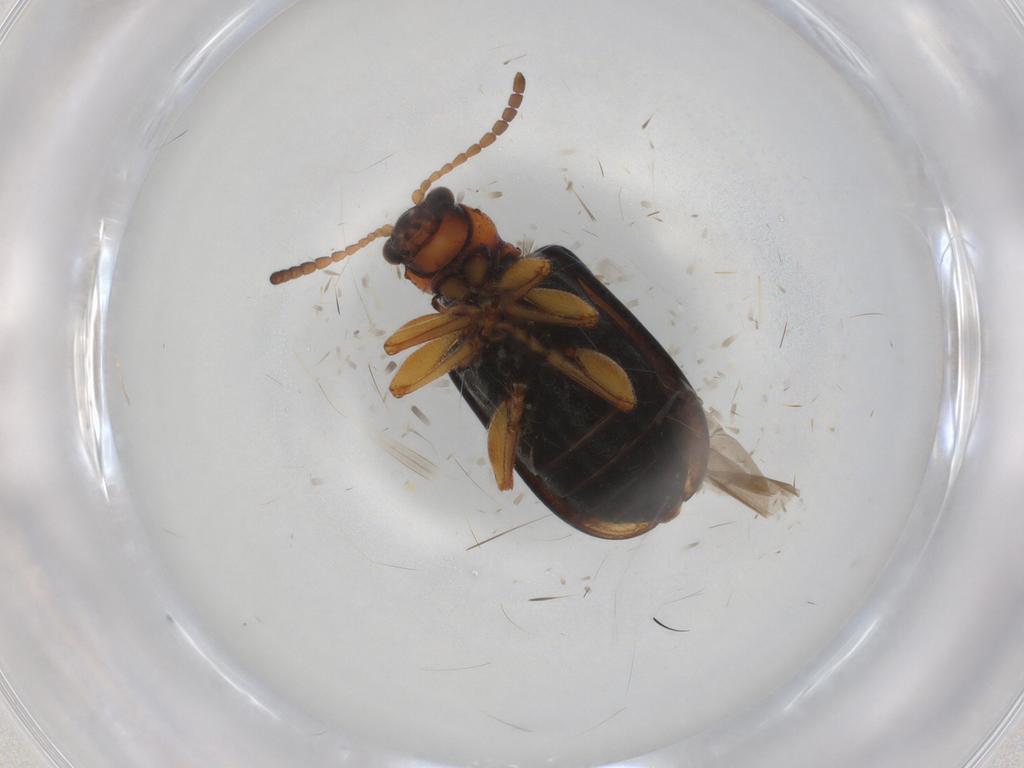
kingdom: Animalia
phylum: Arthropoda
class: Insecta
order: Coleoptera
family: Chrysomelidae
